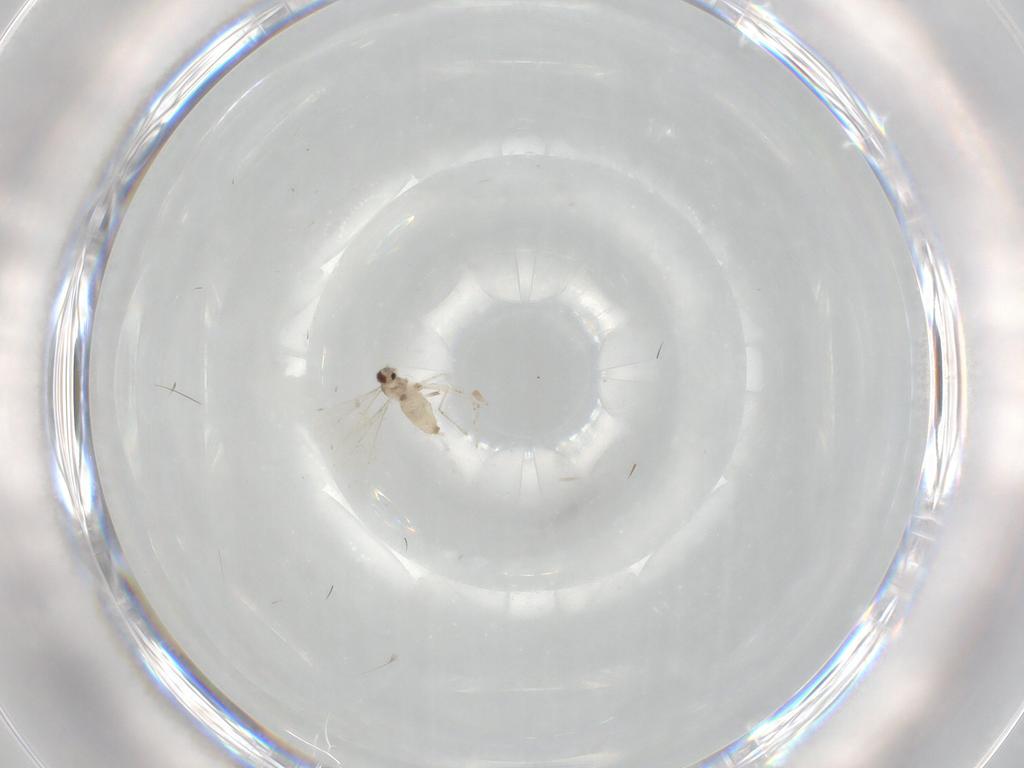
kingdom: Animalia
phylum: Arthropoda
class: Insecta
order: Diptera
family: Cecidomyiidae
